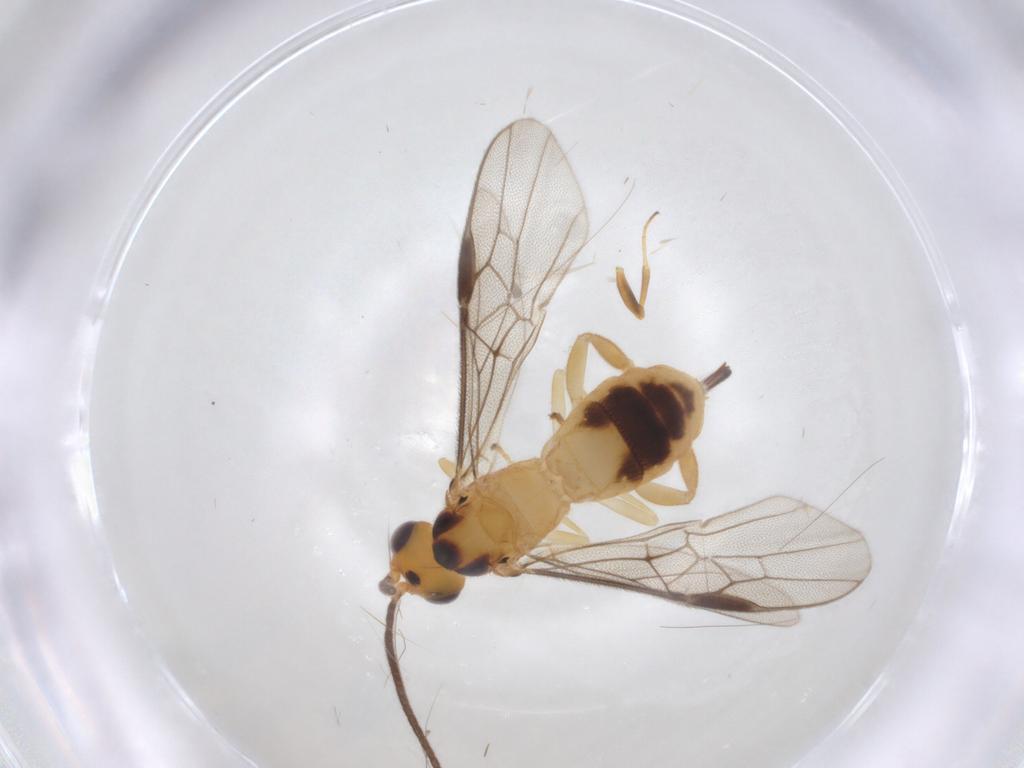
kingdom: Animalia
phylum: Arthropoda
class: Insecta
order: Hymenoptera
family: Braconidae
